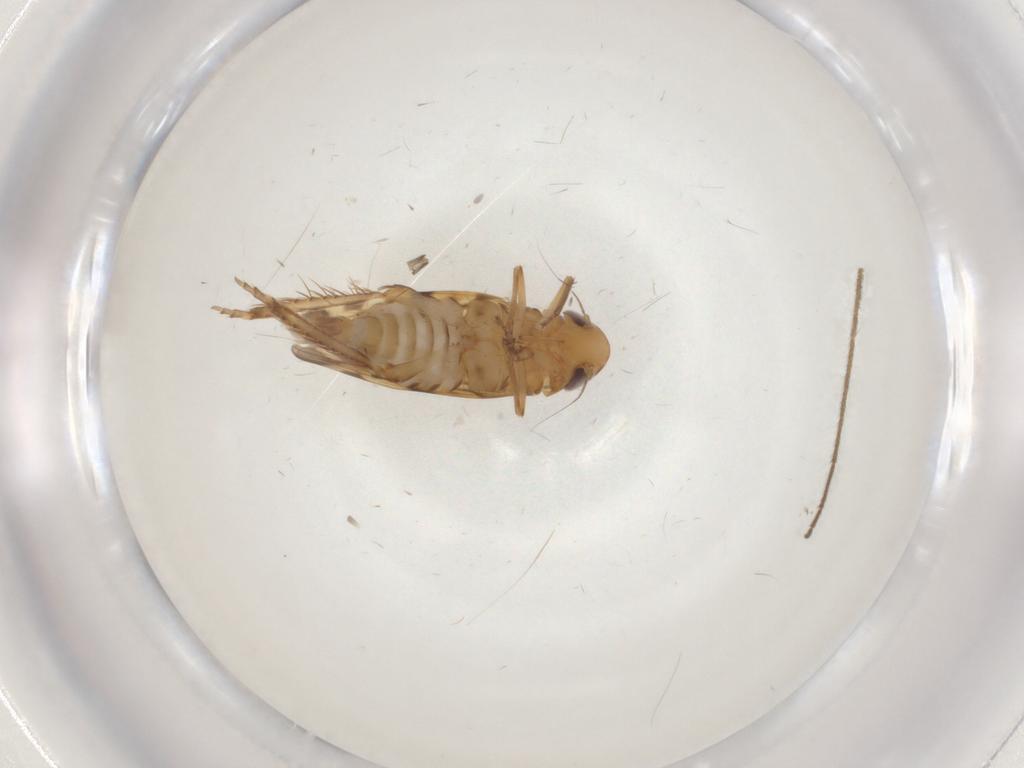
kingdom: Animalia
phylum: Arthropoda
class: Insecta
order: Hemiptera
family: Cicadellidae
